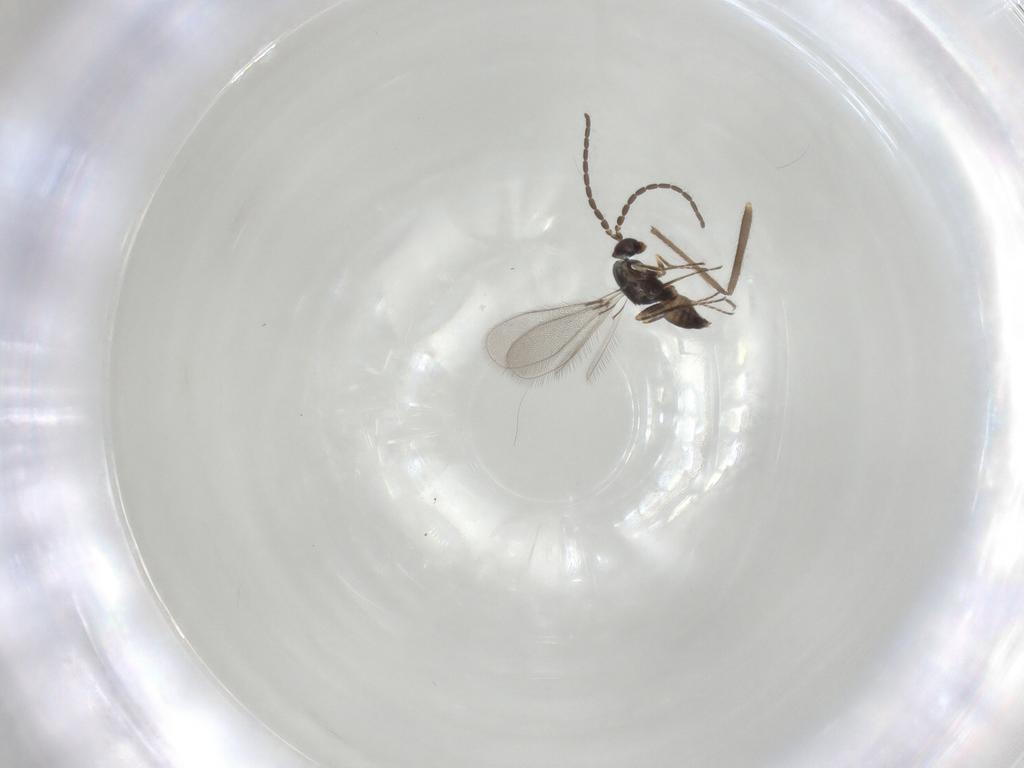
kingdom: Animalia
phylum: Arthropoda
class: Insecta
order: Hymenoptera
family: Mymaridae
